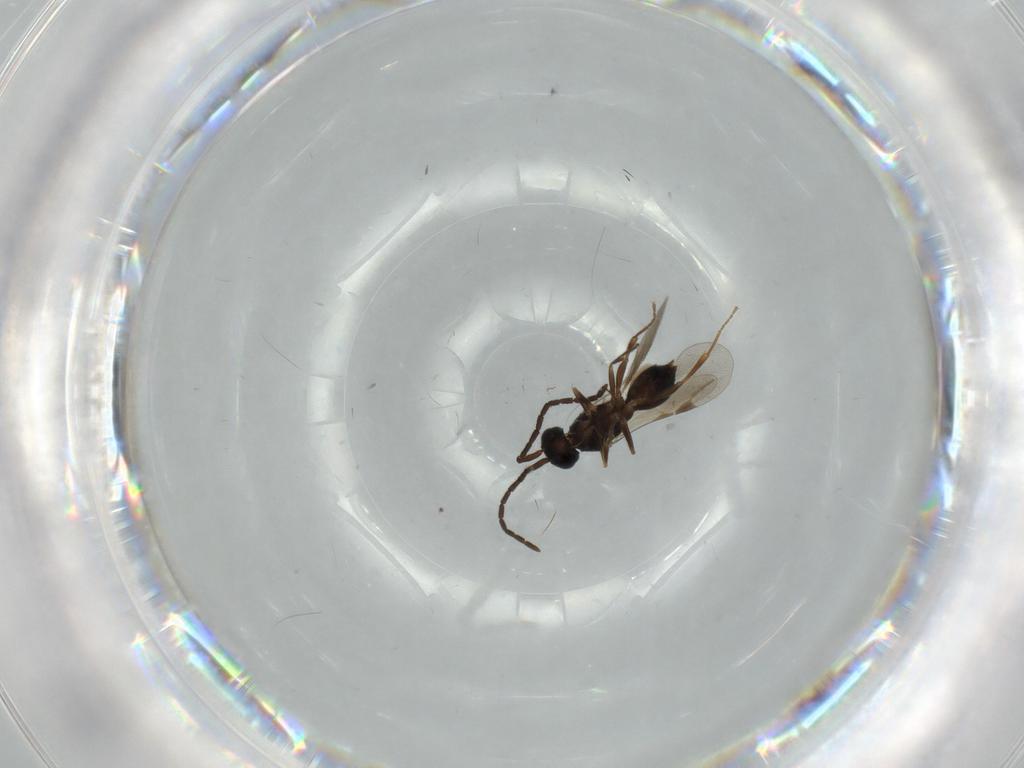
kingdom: Animalia
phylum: Arthropoda
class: Insecta
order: Hymenoptera
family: Megaspilidae
